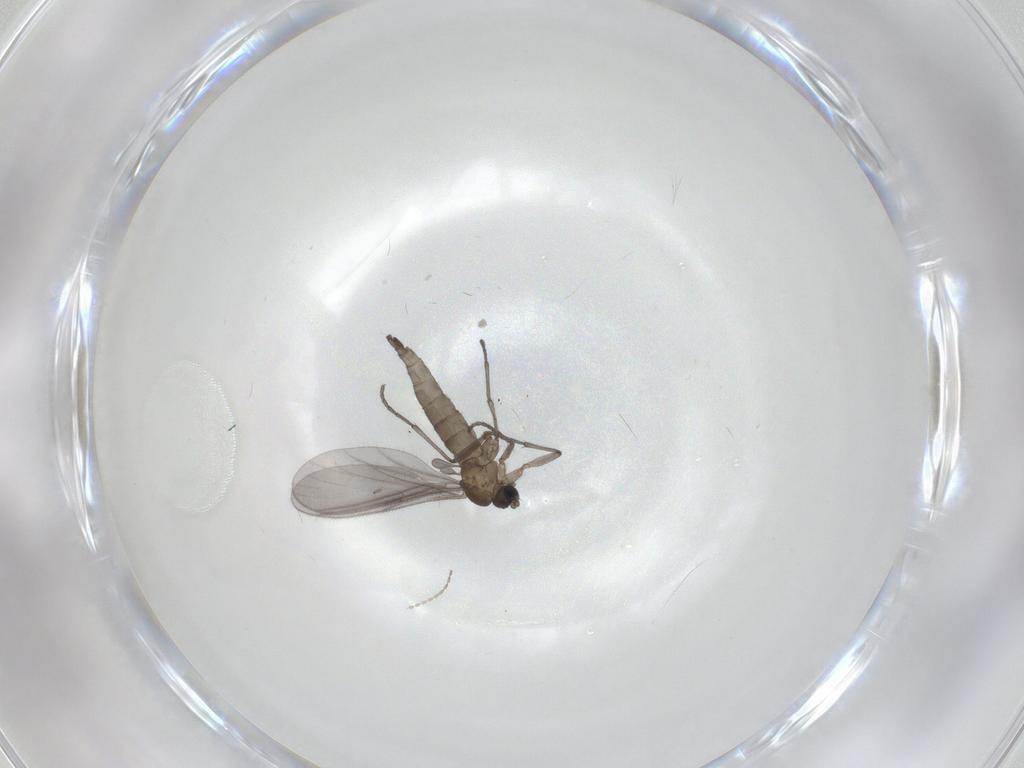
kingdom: Animalia
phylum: Arthropoda
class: Insecta
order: Diptera
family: Sciaridae
